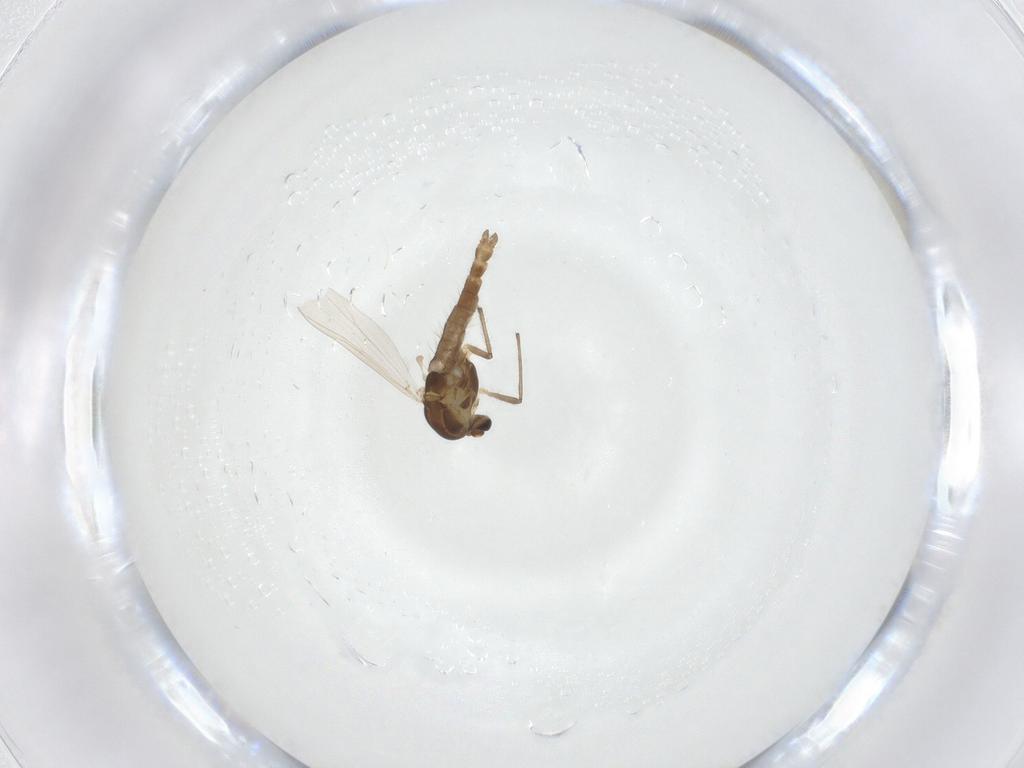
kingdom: Animalia
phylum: Arthropoda
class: Insecta
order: Diptera
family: Chironomidae
